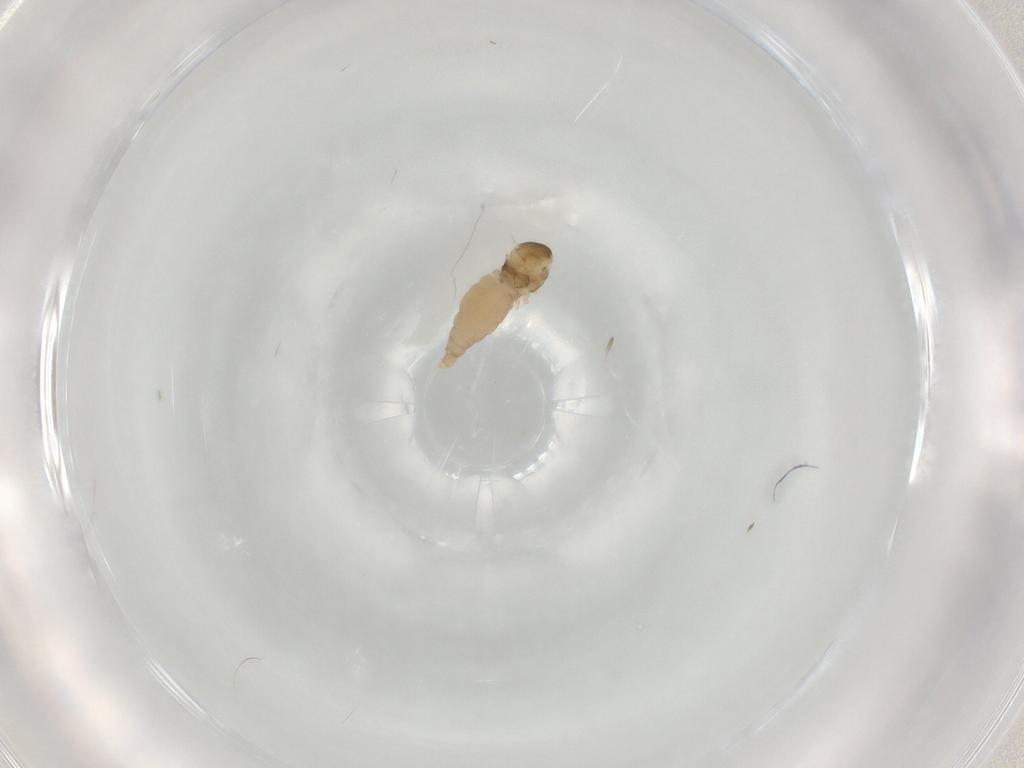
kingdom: Animalia
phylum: Arthropoda
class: Insecta
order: Diptera
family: Cecidomyiidae
